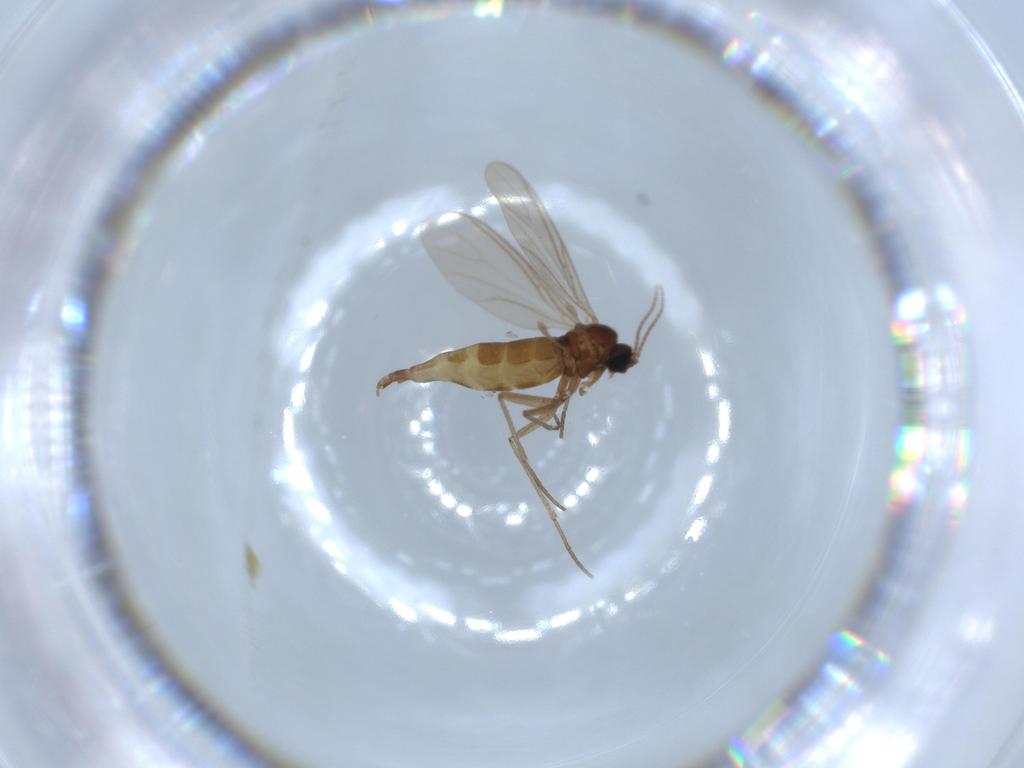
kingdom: Animalia
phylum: Arthropoda
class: Insecta
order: Diptera
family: Sciaridae
